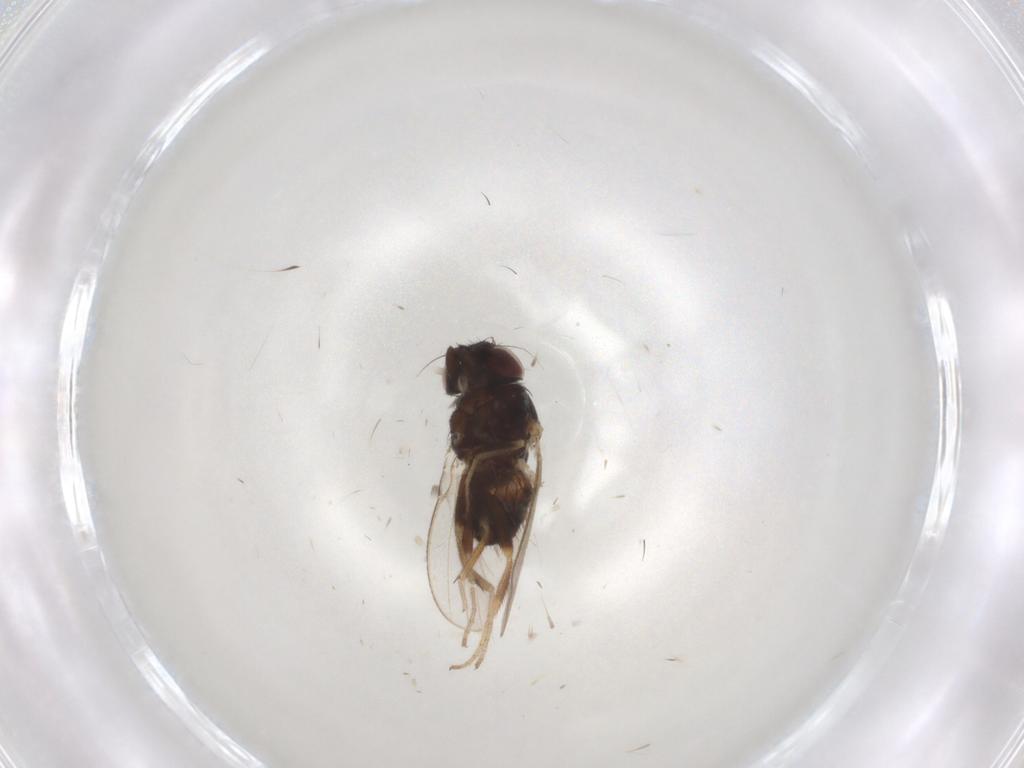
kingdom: Animalia
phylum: Arthropoda
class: Insecta
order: Diptera
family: Milichiidae
